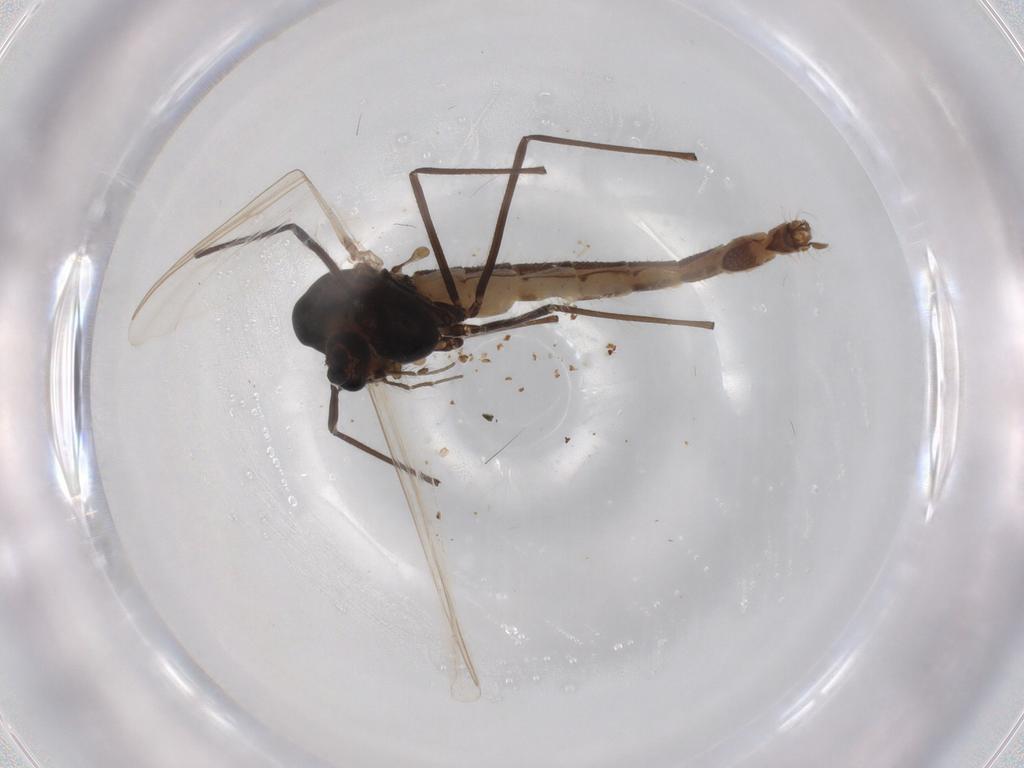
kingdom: Animalia
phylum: Arthropoda
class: Insecta
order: Diptera
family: Chironomidae
